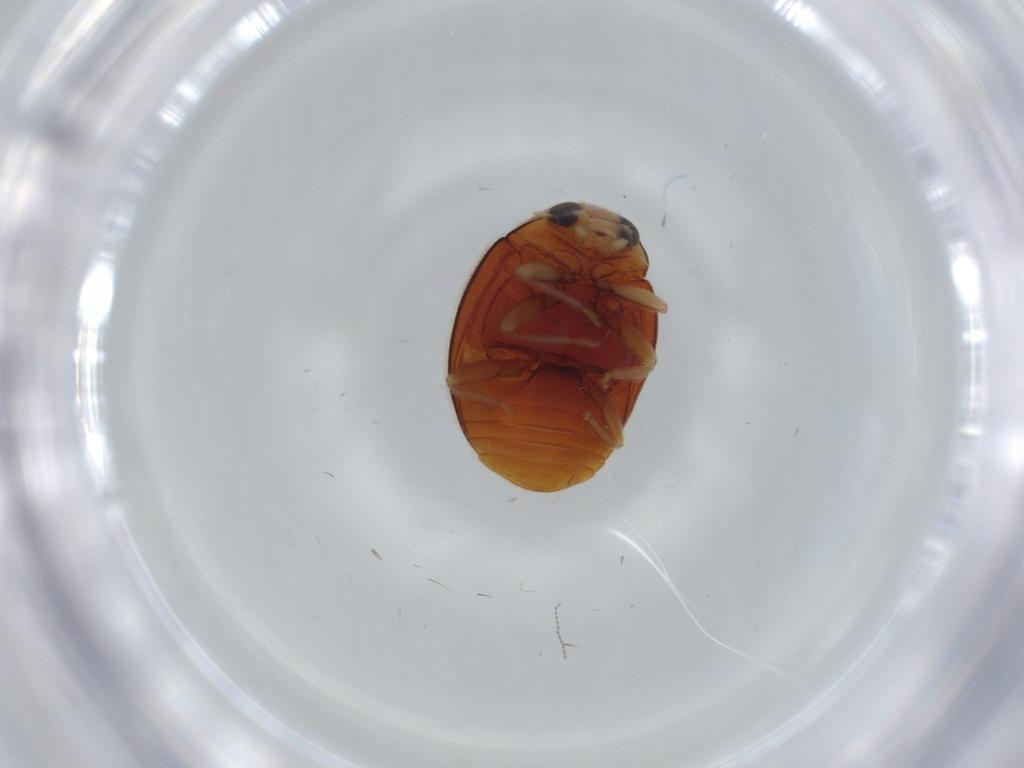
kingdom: Animalia
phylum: Arthropoda
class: Insecta
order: Coleoptera
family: Coccinellidae
